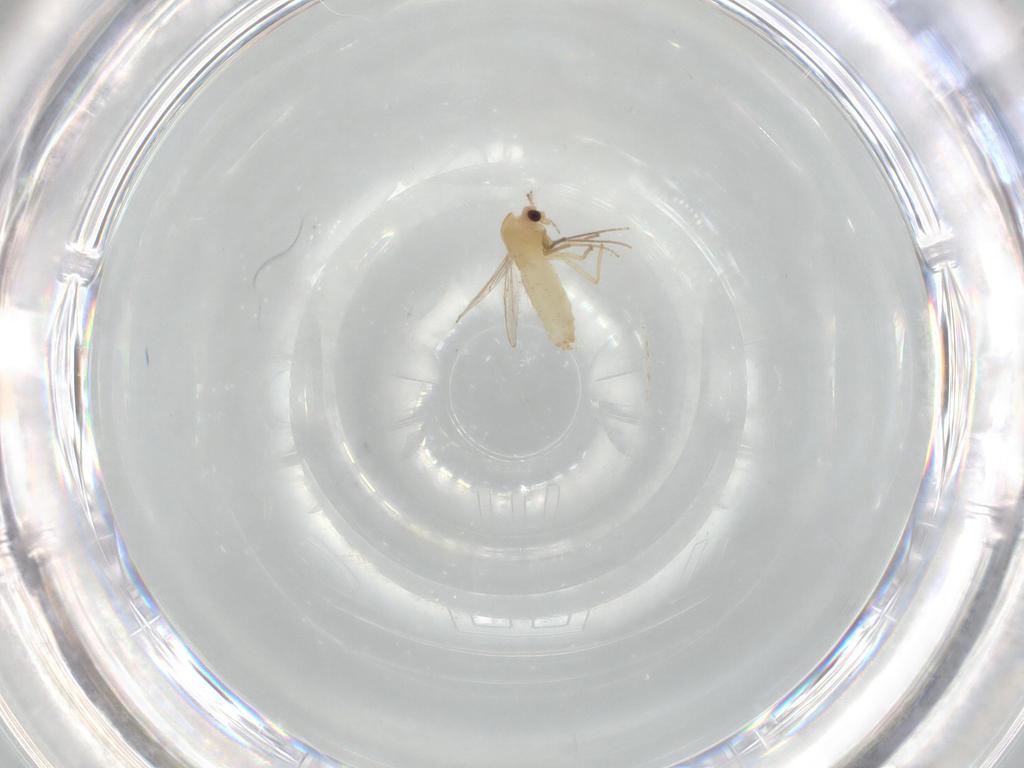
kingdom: Animalia
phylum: Arthropoda
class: Insecta
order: Diptera
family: Chironomidae
